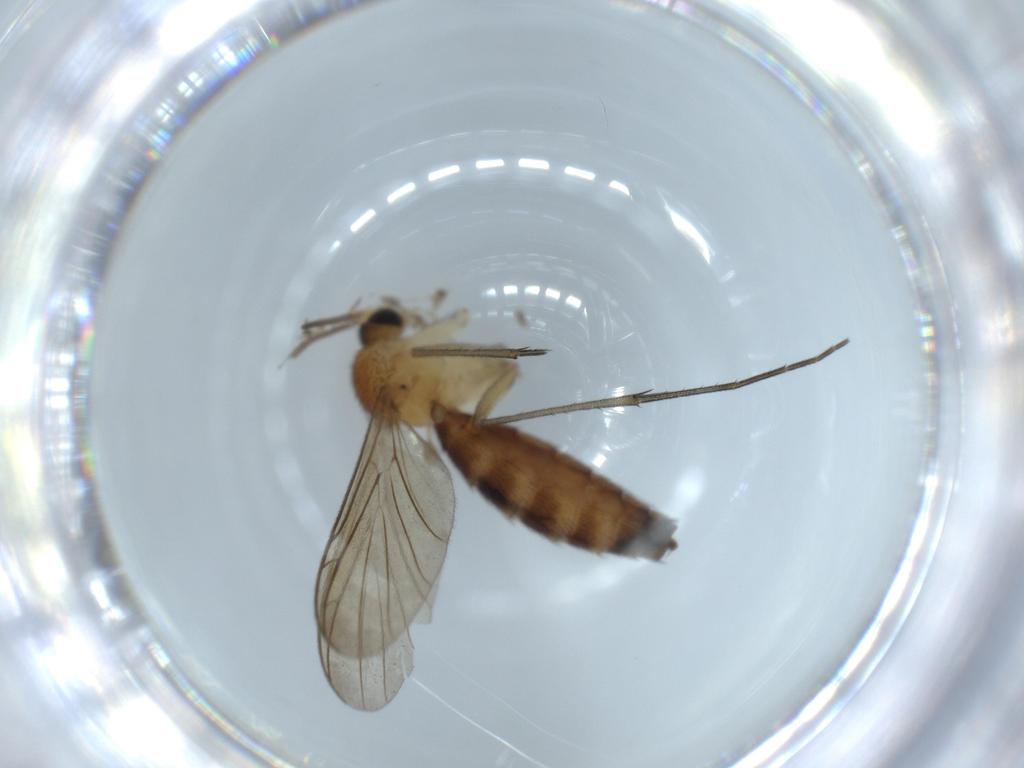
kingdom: Animalia
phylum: Arthropoda
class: Insecta
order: Diptera
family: Keroplatidae
